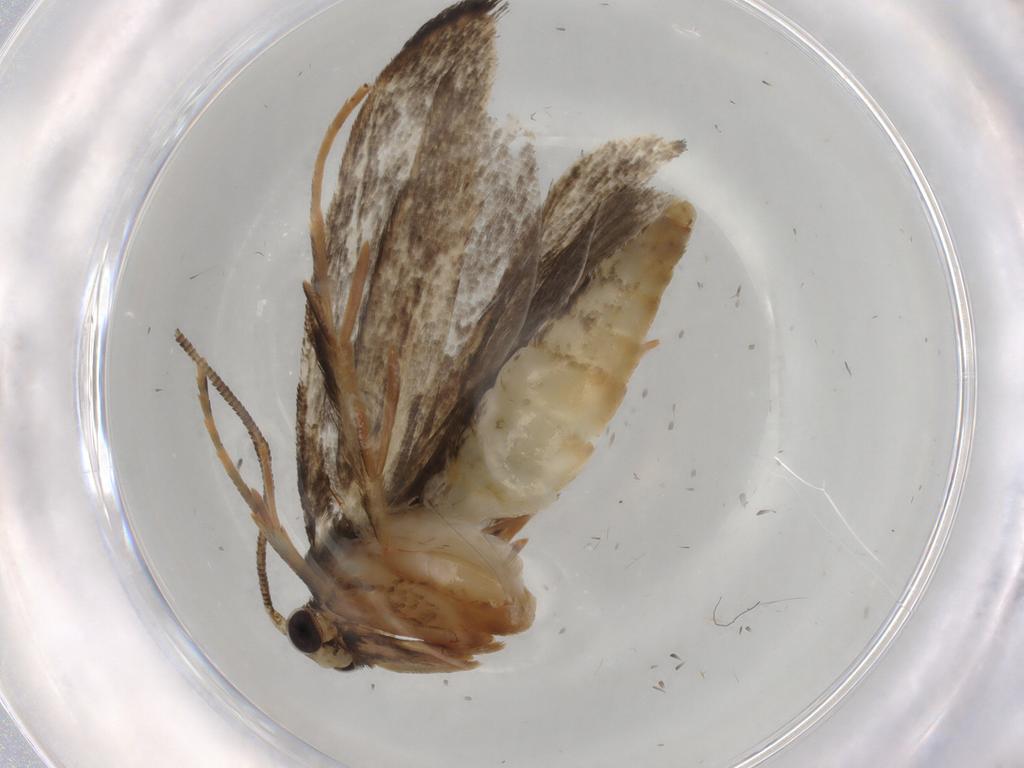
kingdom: Animalia
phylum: Arthropoda
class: Insecta
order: Lepidoptera
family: Tineidae
